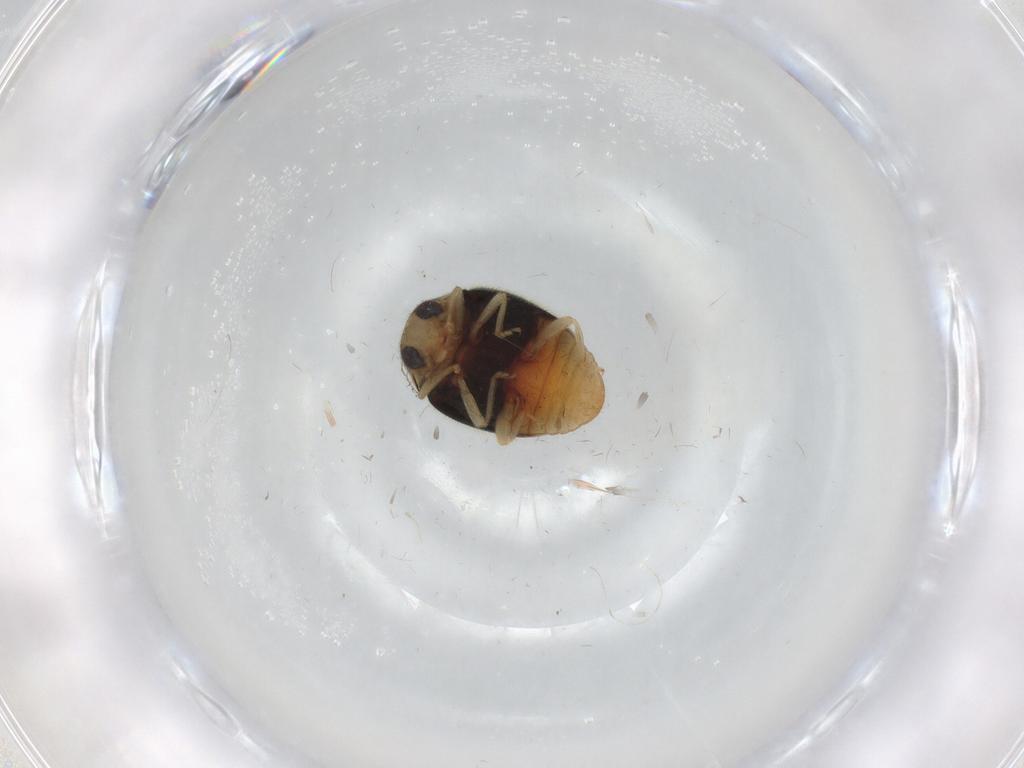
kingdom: Animalia
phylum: Arthropoda
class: Insecta
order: Coleoptera
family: Coccinellidae
